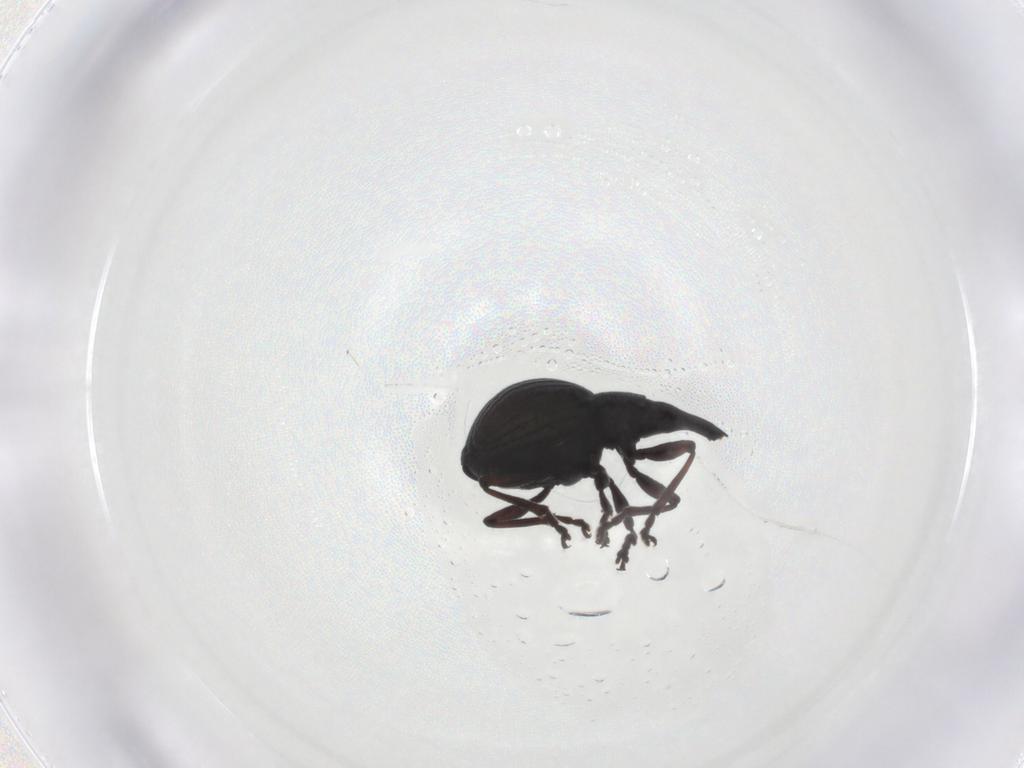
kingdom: Animalia
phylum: Arthropoda
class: Insecta
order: Coleoptera
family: Brentidae
